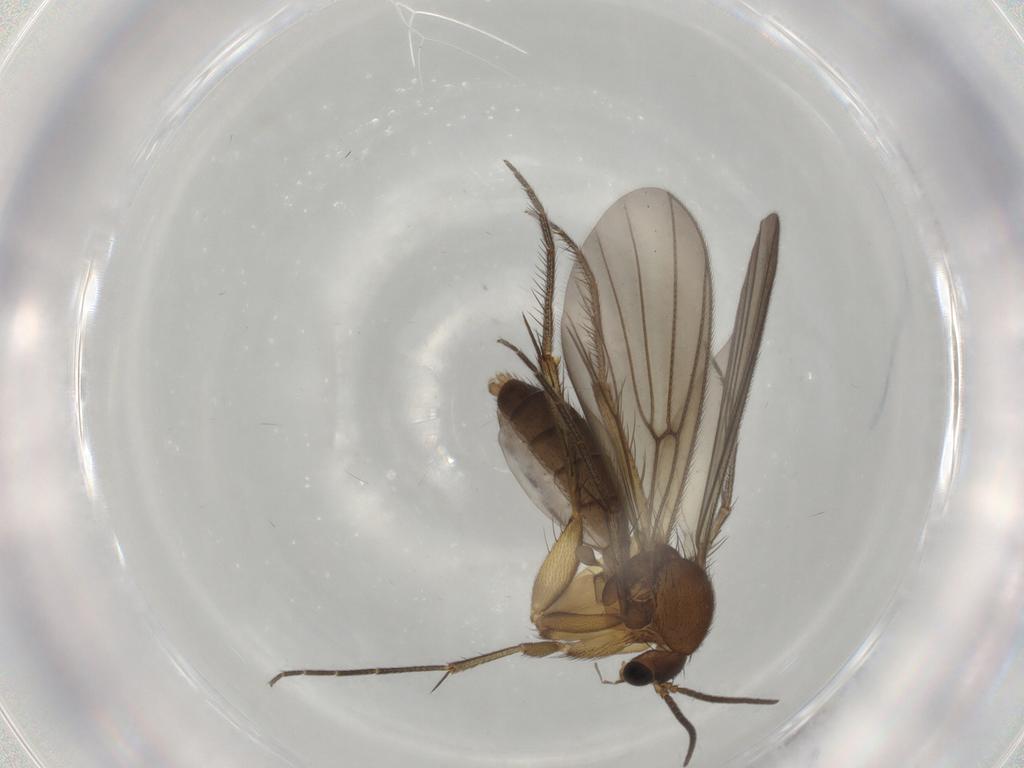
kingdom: Animalia
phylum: Arthropoda
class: Insecta
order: Diptera
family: Mycetophilidae
